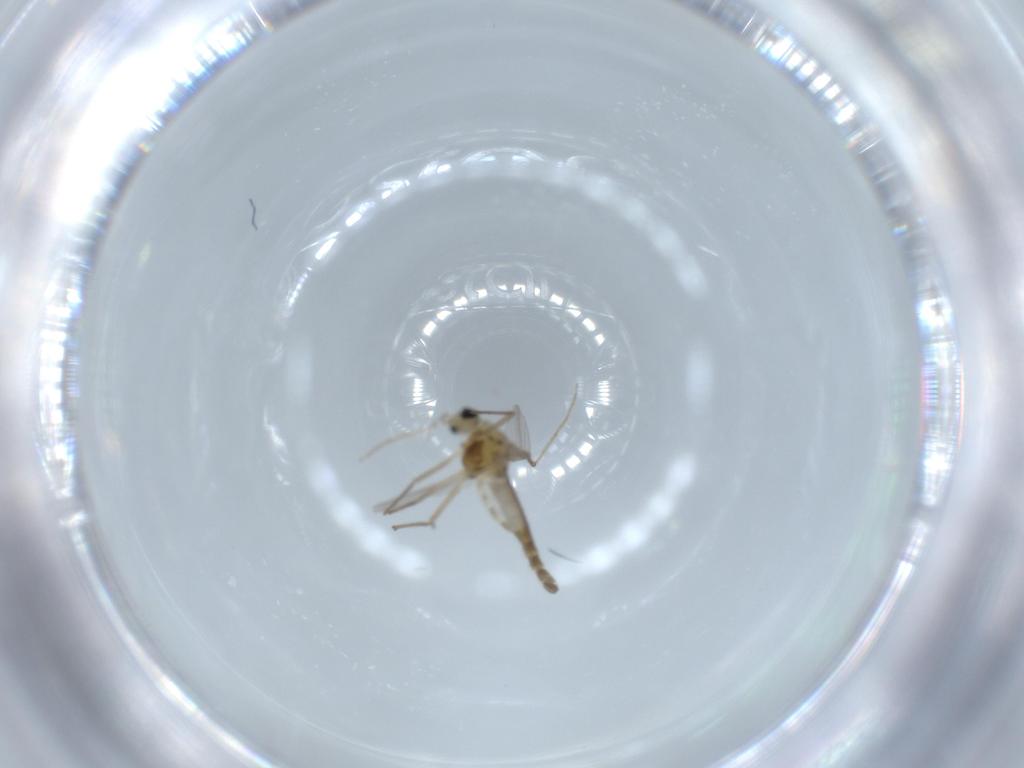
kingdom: Animalia
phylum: Arthropoda
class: Insecta
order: Diptera
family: Chironomidae
